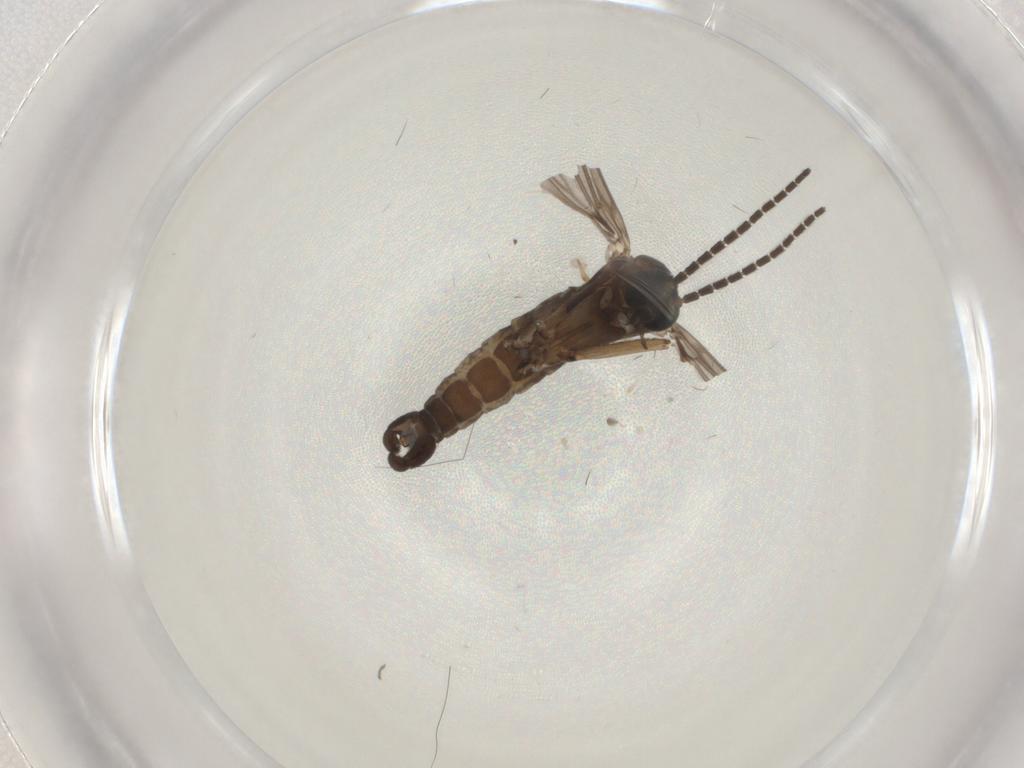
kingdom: Animalia
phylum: Arthropoda
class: Insecta
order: Diptera
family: Sciaridae
